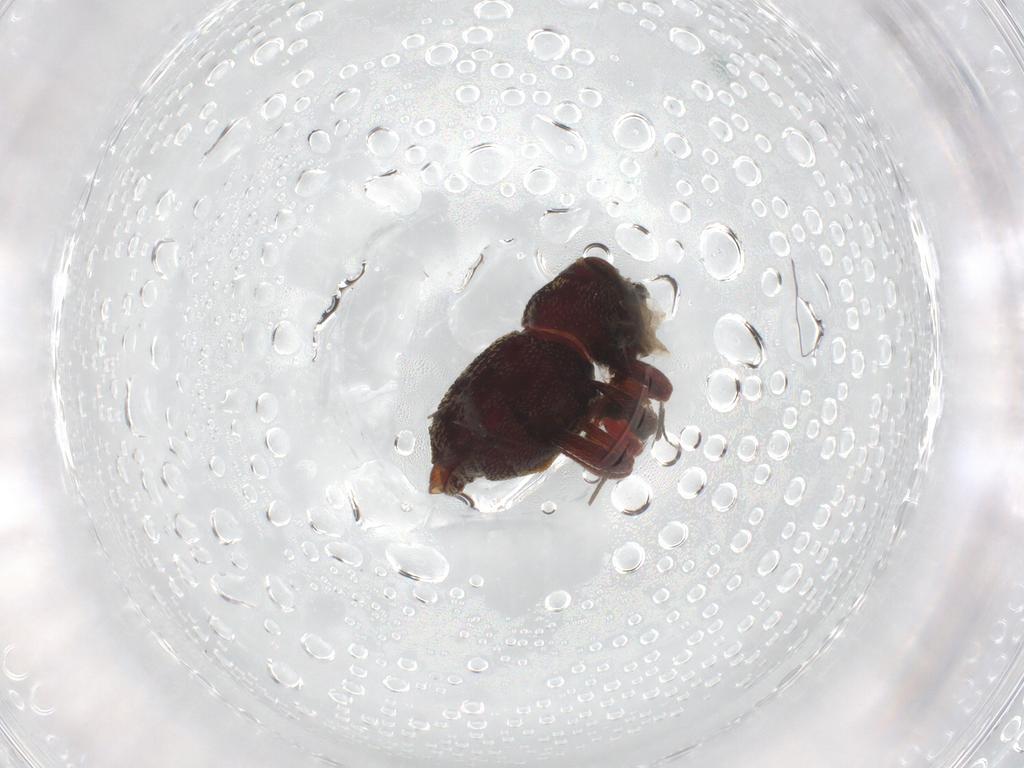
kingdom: Animalia
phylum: Arthropoda
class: Insecta
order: Coleoptera
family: Curculionidae
